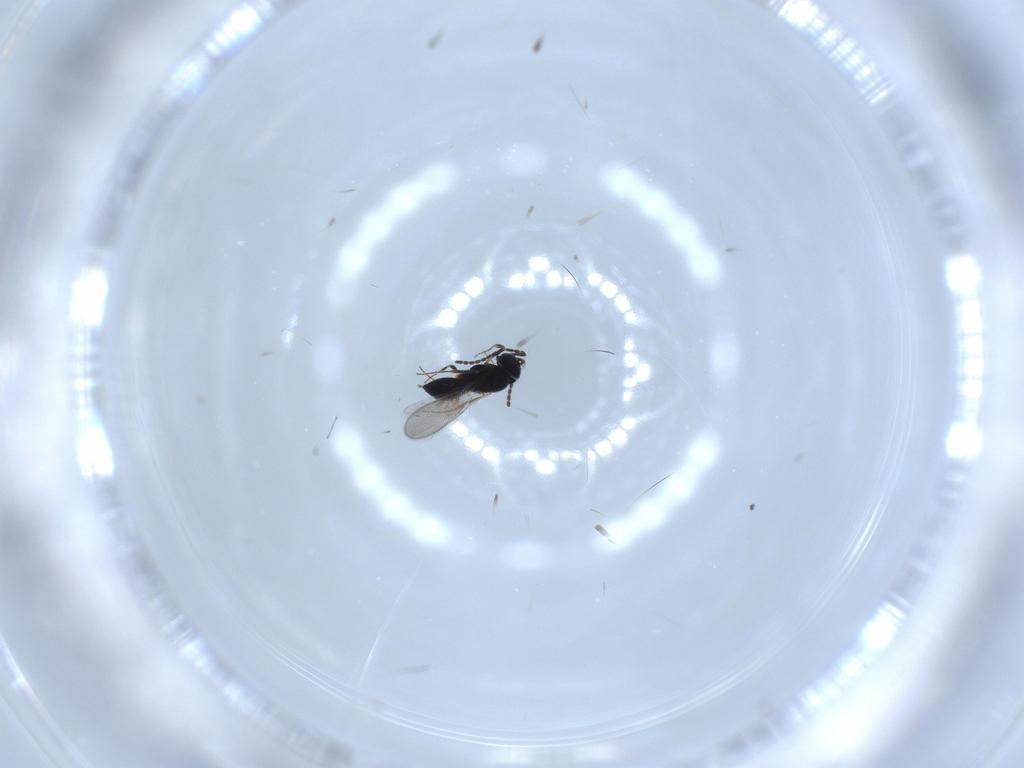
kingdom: Animalia
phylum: Arthropoda
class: Insecta
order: Hymenoptera
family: Scelionidae
